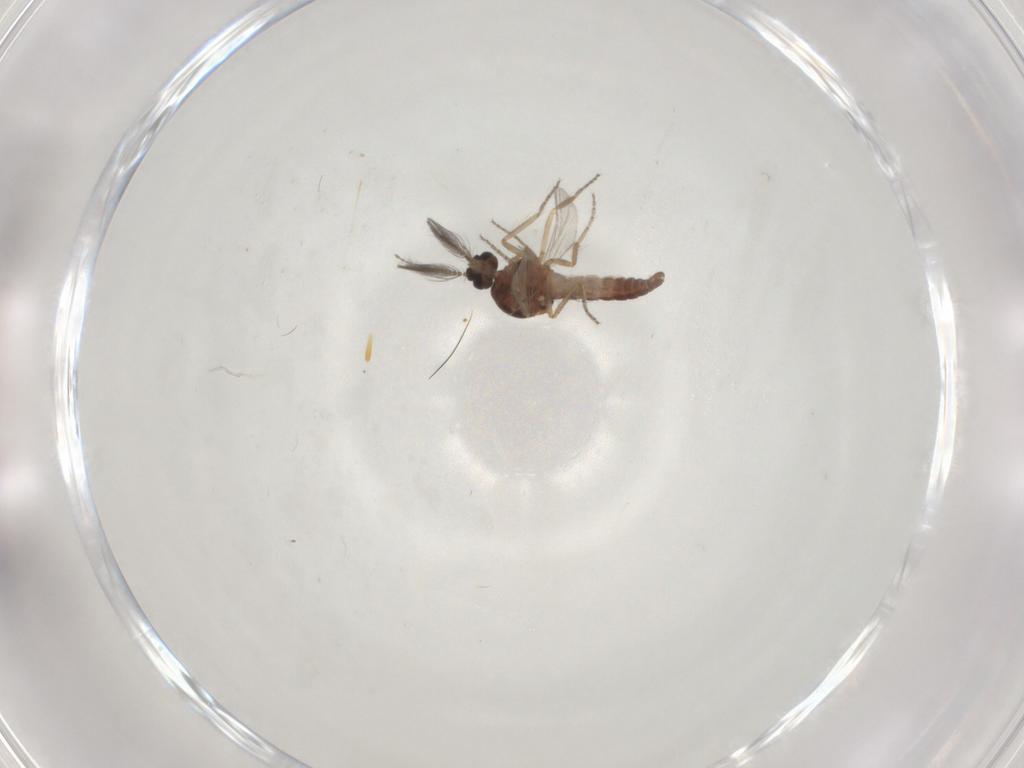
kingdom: Animalia
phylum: Arthropoda
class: Insecta
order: Diptera
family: Ceratopogonidae
